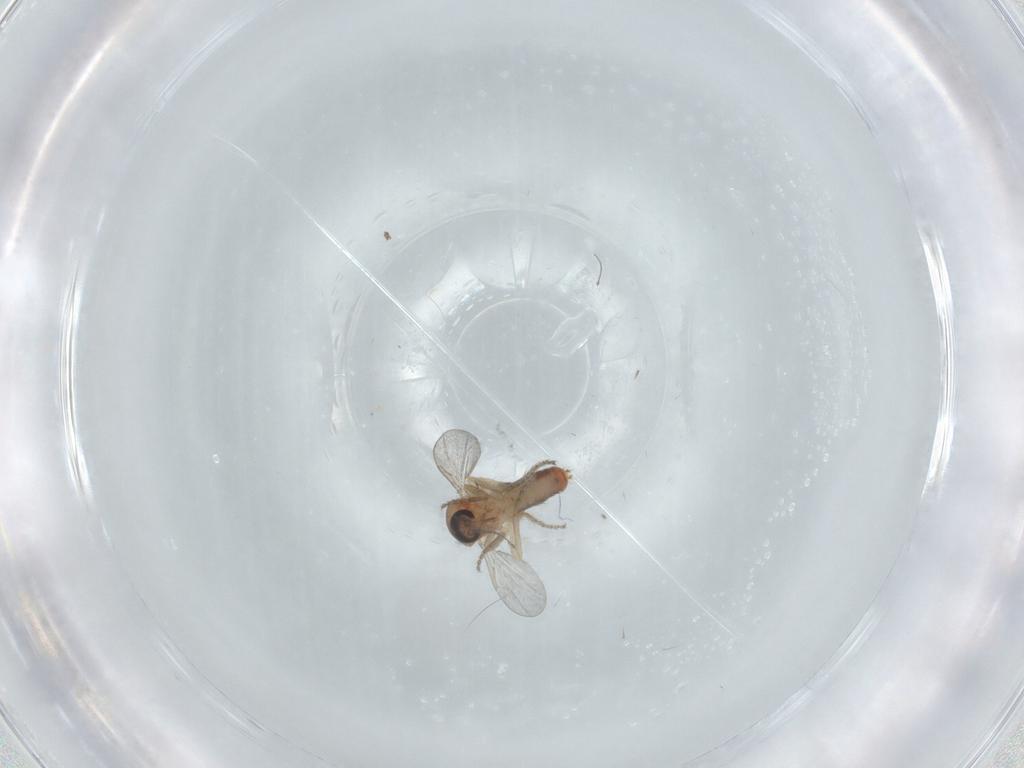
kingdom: Animalia
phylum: Arthropoda
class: Insecta
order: Diptera
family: Ceratopogonidae
